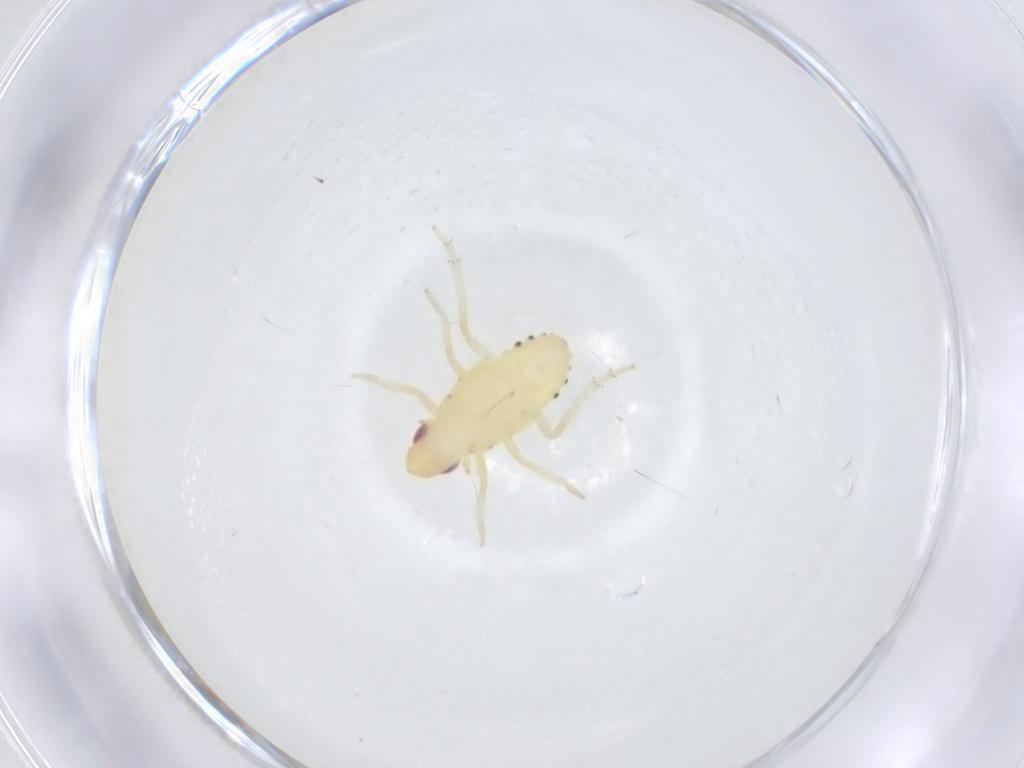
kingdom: Animalia
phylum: Arthropoda
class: Insecta
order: Hemiptera
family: Tropiduchidae
